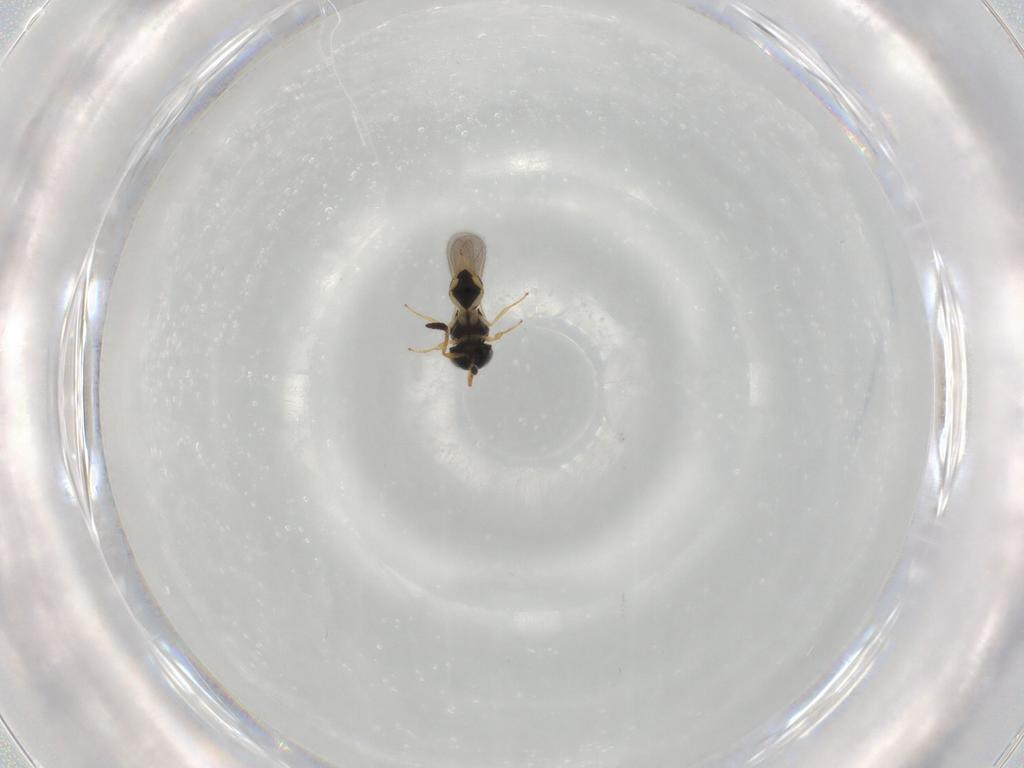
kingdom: Animalia
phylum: Arthropoda
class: Insecta
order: Hymenoptera
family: Scelionidae
